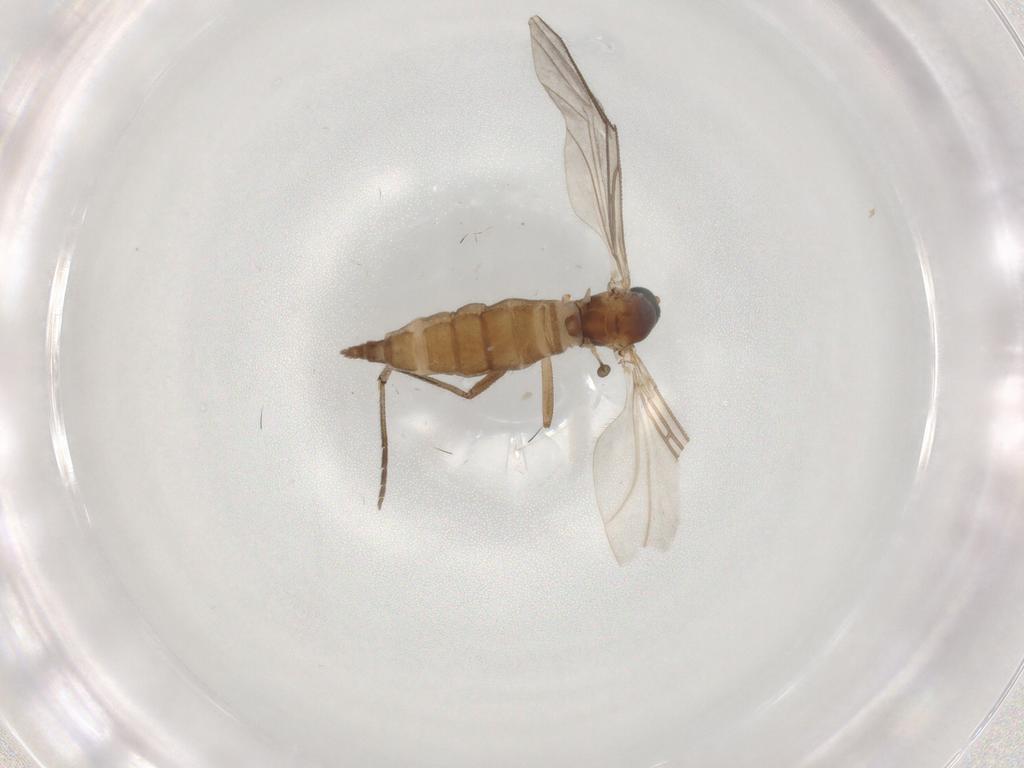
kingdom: Animalia
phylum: Arthropoda
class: Insecta
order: Diptera
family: Sciaridae
